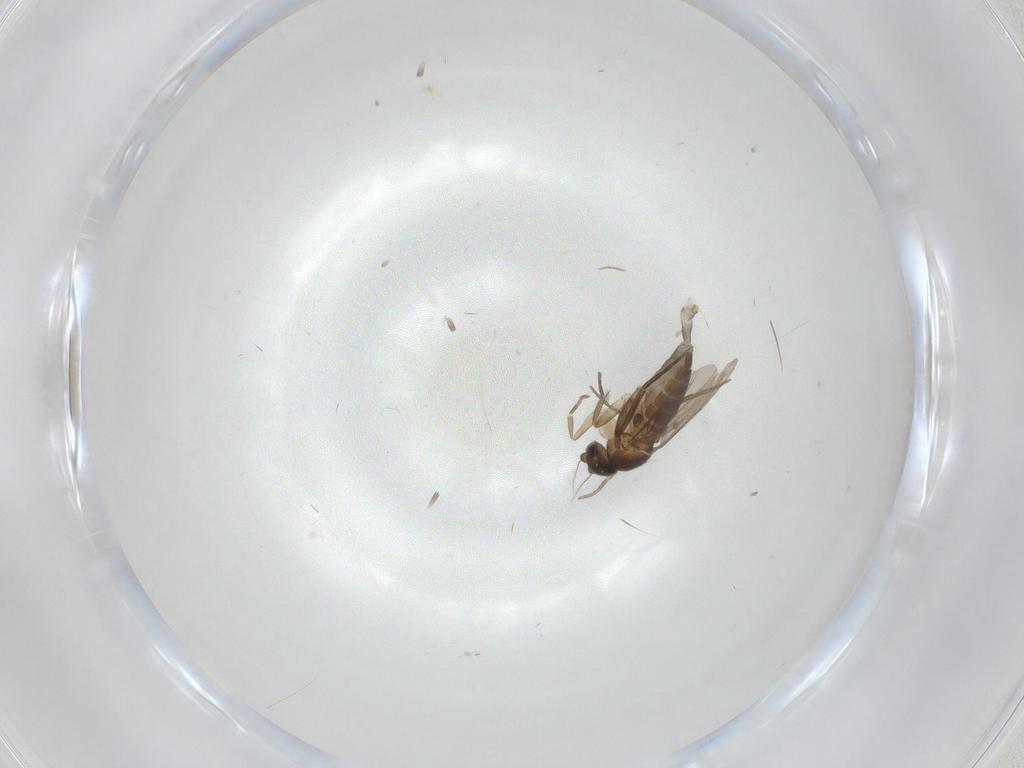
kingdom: Animalia
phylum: Arthropoda
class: Insecta
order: Diptera
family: Phoridae
